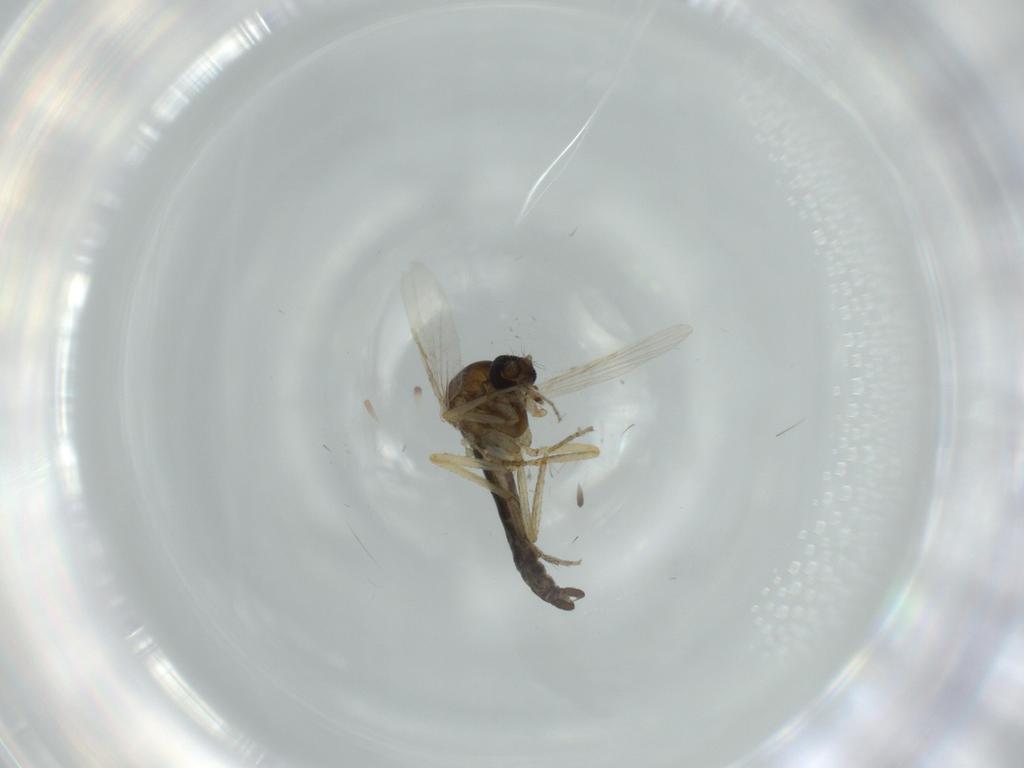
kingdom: Animalia
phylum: Arthropoda
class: Insecta
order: Diptera
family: Ceratopogonidae
